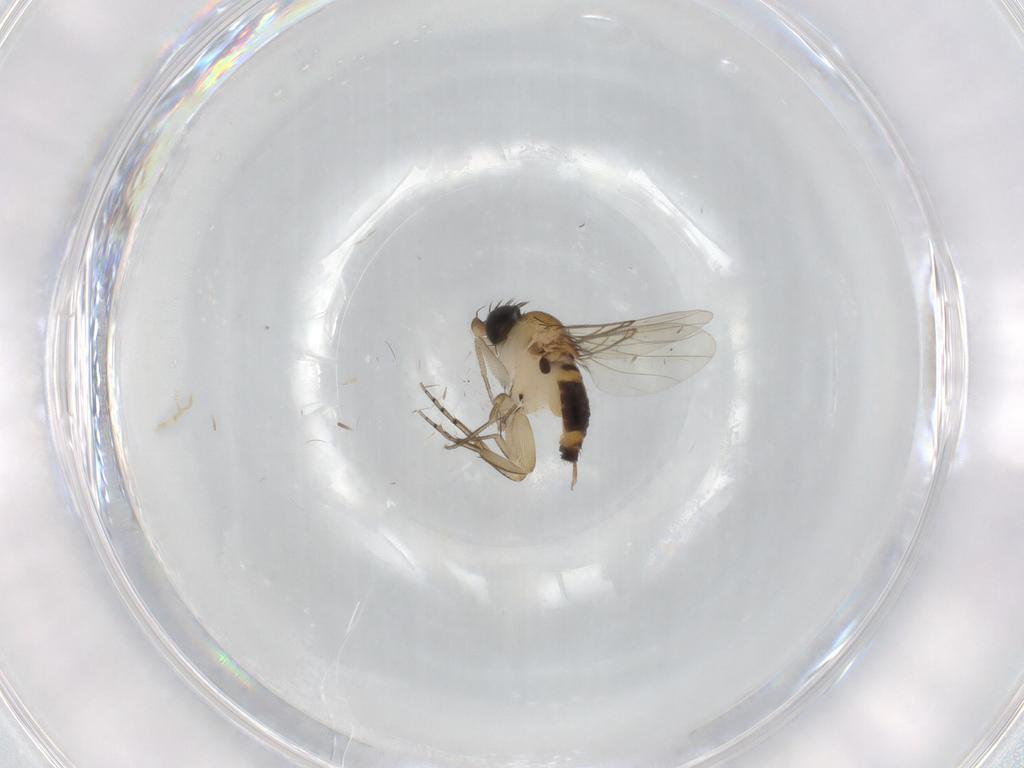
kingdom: Animalia
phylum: Arthropoda
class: Insecta
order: Diptera
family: Phoridae
